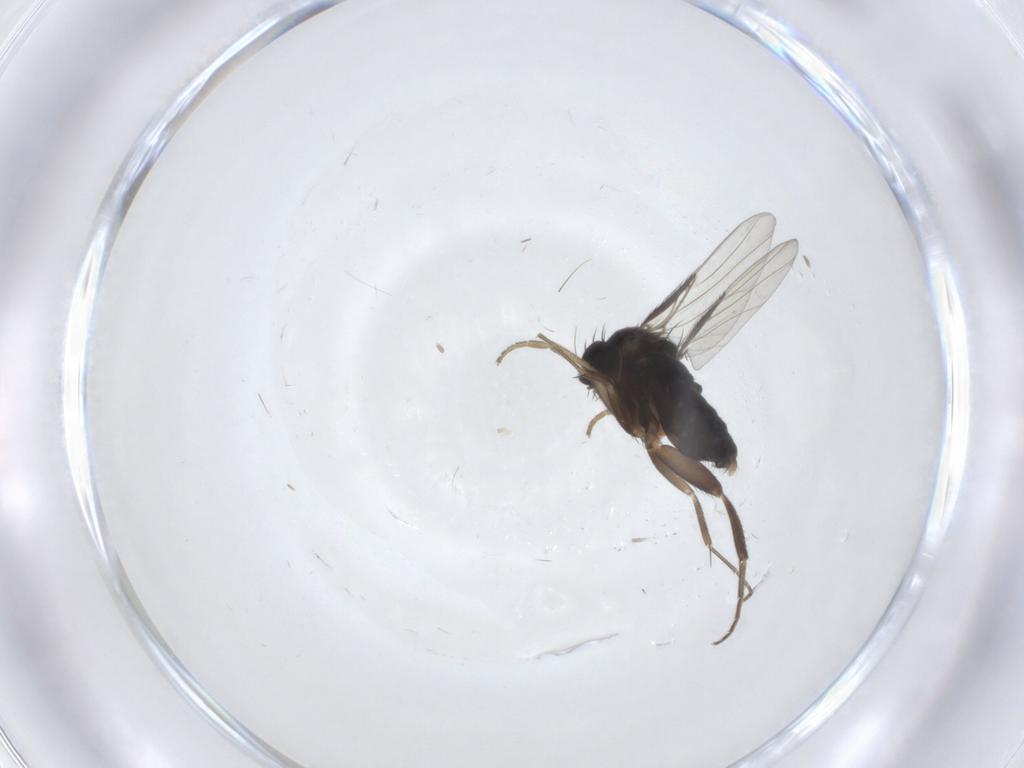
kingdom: Animalia
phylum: Arthropoda
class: Insecta
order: Diptera
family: Phoridae
